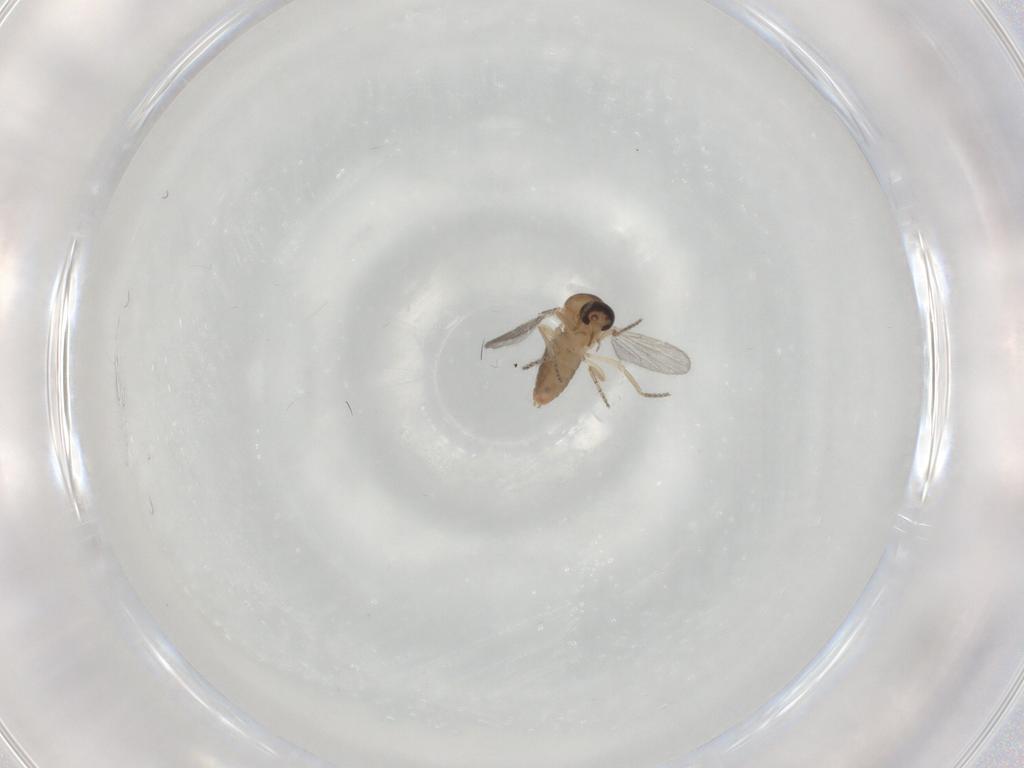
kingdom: Animalia
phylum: Arthropoda
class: Insecta
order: Diptera
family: Ceratopogonidae
